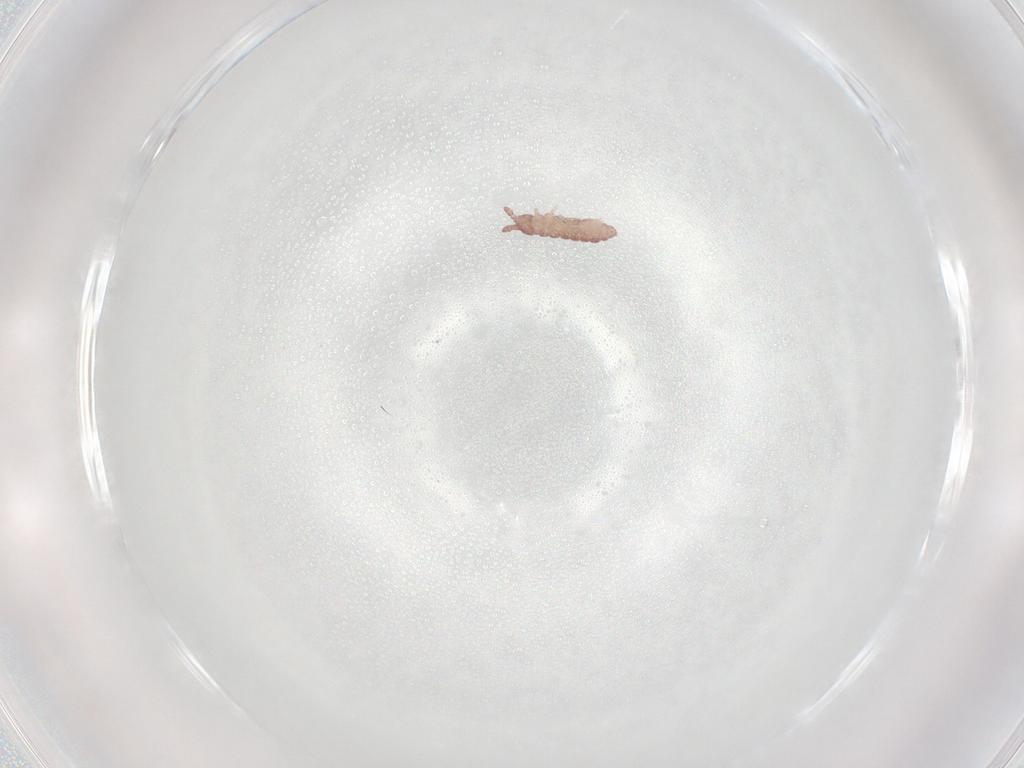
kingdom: Animalia
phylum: Arthropoda
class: Collembola
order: Poduromorpha
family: Hypogastruridae
